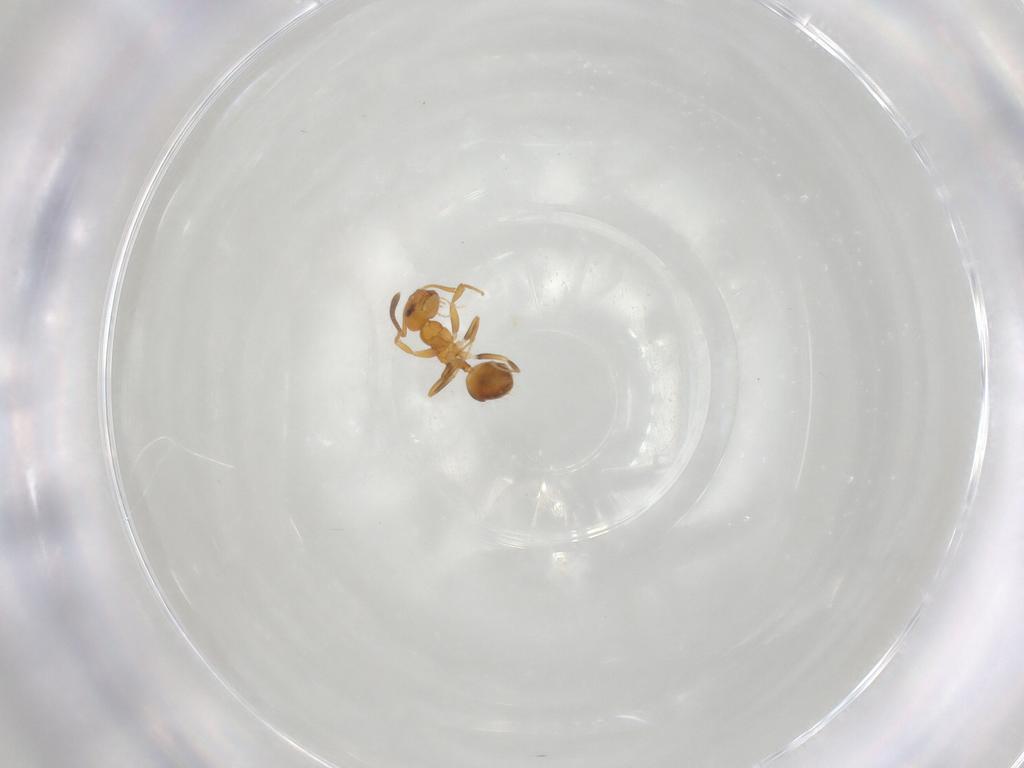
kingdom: Animalia
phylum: Arthropoda
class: Insecta
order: Hymenoptera
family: Formicidae
